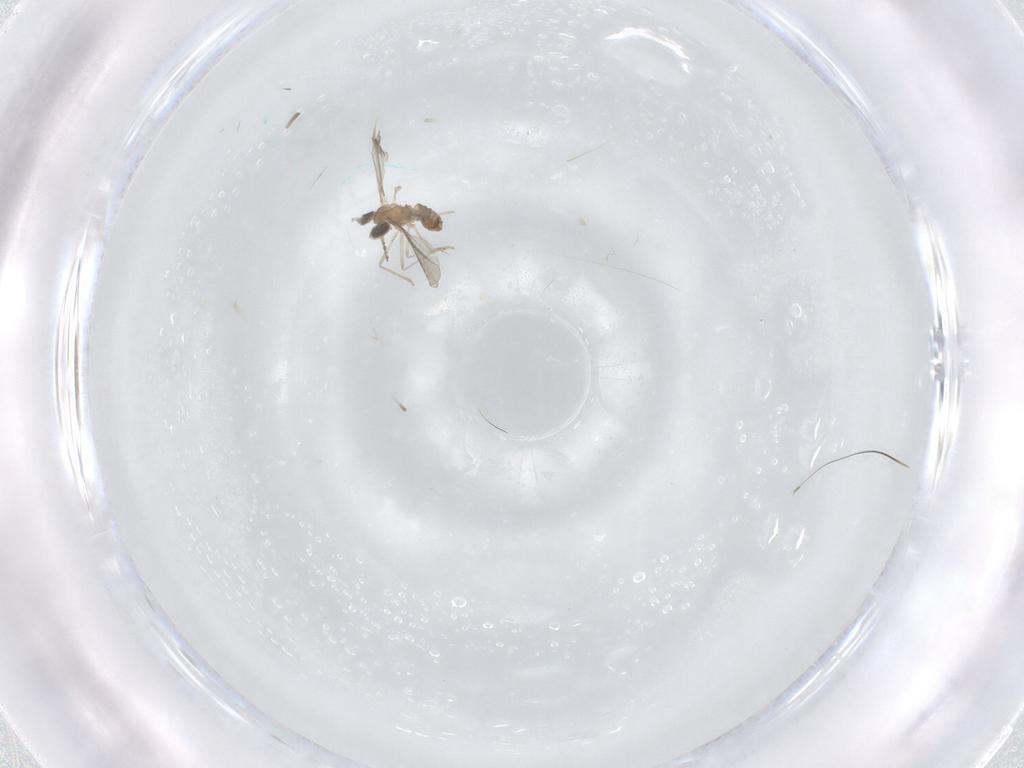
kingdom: Animalia
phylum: Arthropoda
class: Insecta
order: Diptera
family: Cecidomyiidae
